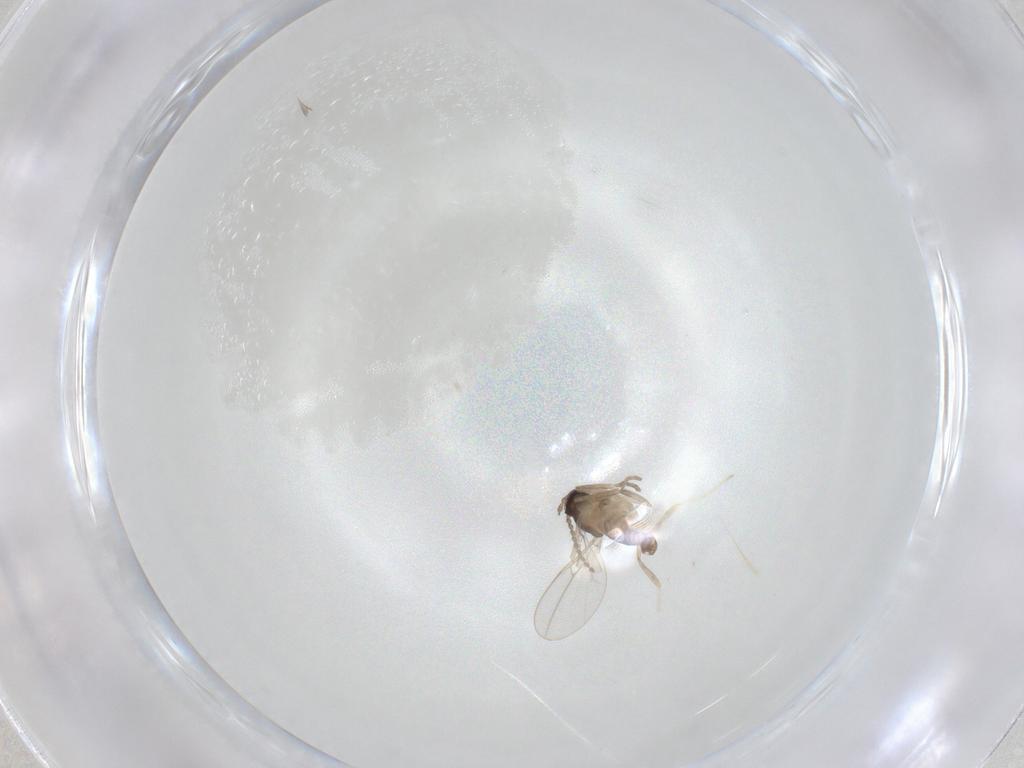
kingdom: Animalia
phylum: Arthropoda
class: Insecta
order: Diptera
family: Cecidomyiidae
